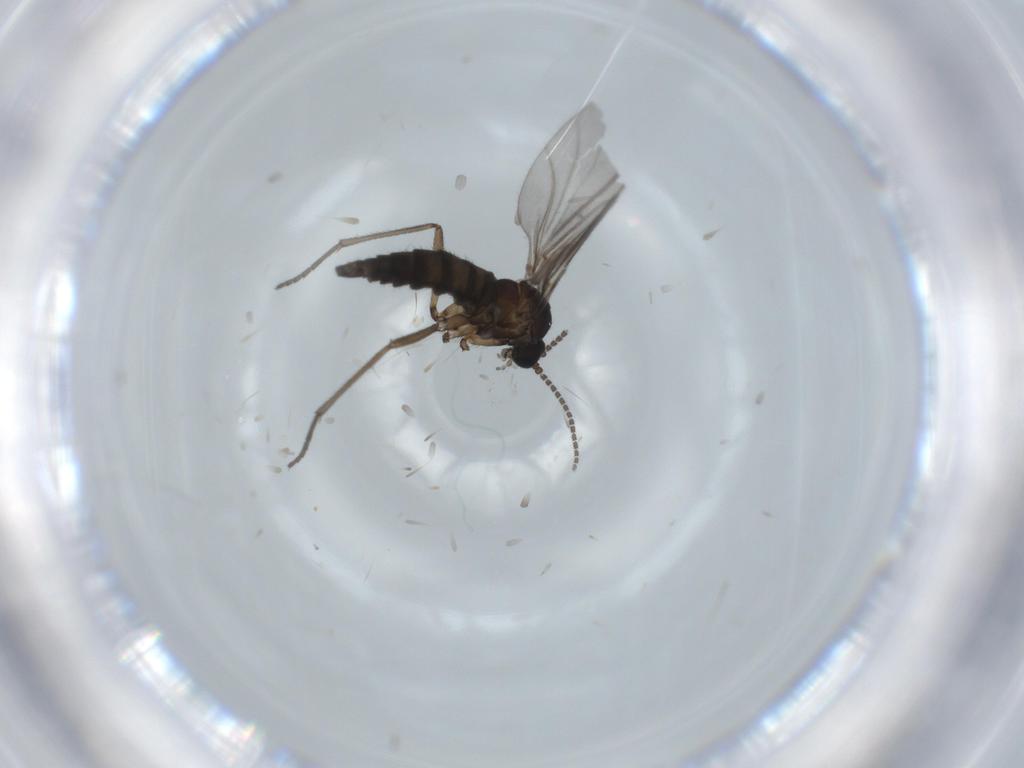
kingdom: Animalia
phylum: Arthropoda
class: Insecta
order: Diptera
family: Sciaridae
